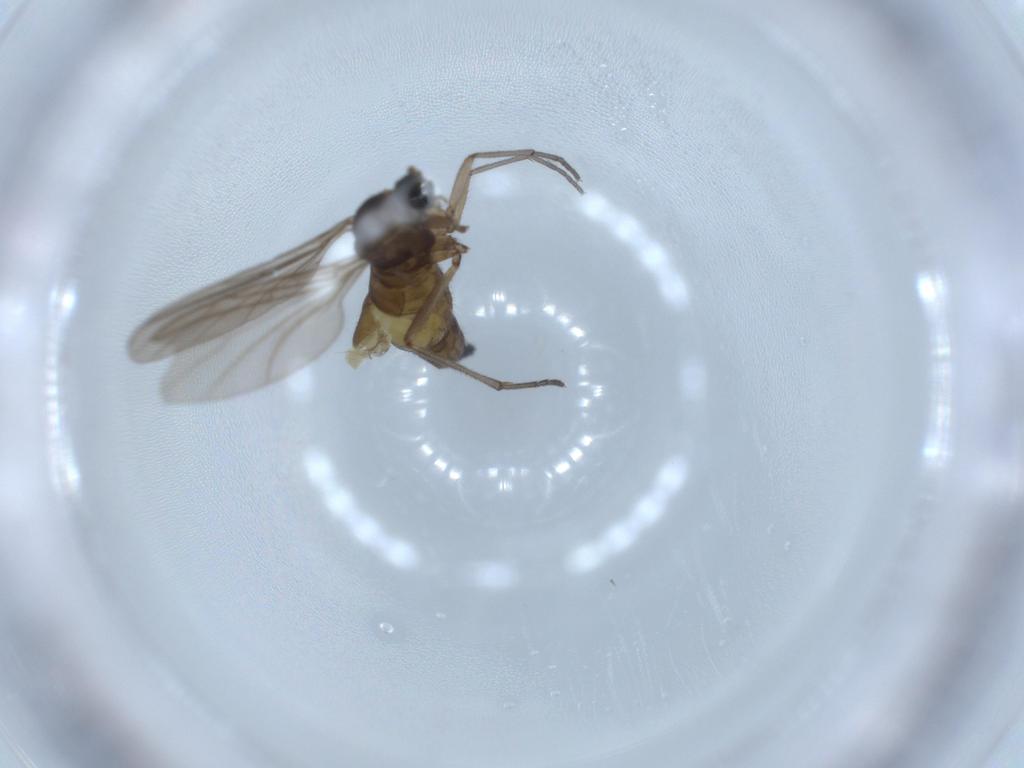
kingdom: Animalia
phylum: Arthropoda
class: Insecta
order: Diptera
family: Sciaridae
